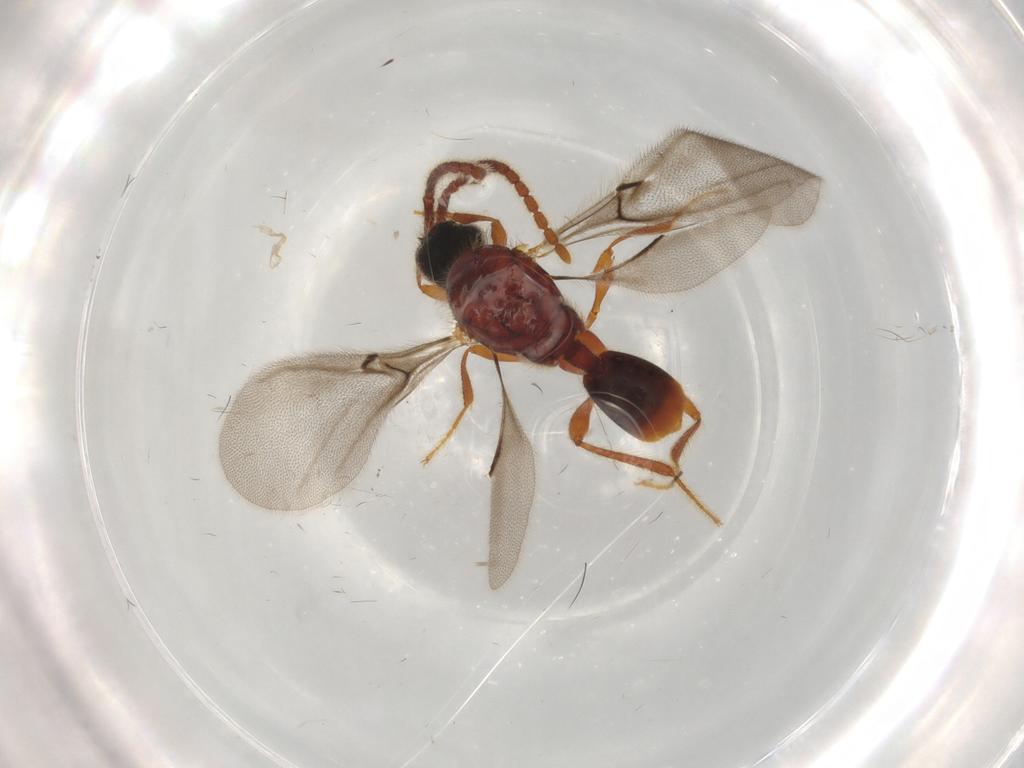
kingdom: Animalia
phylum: Arthropoda
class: Insecta
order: Hymenoptera
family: Diapriidae
